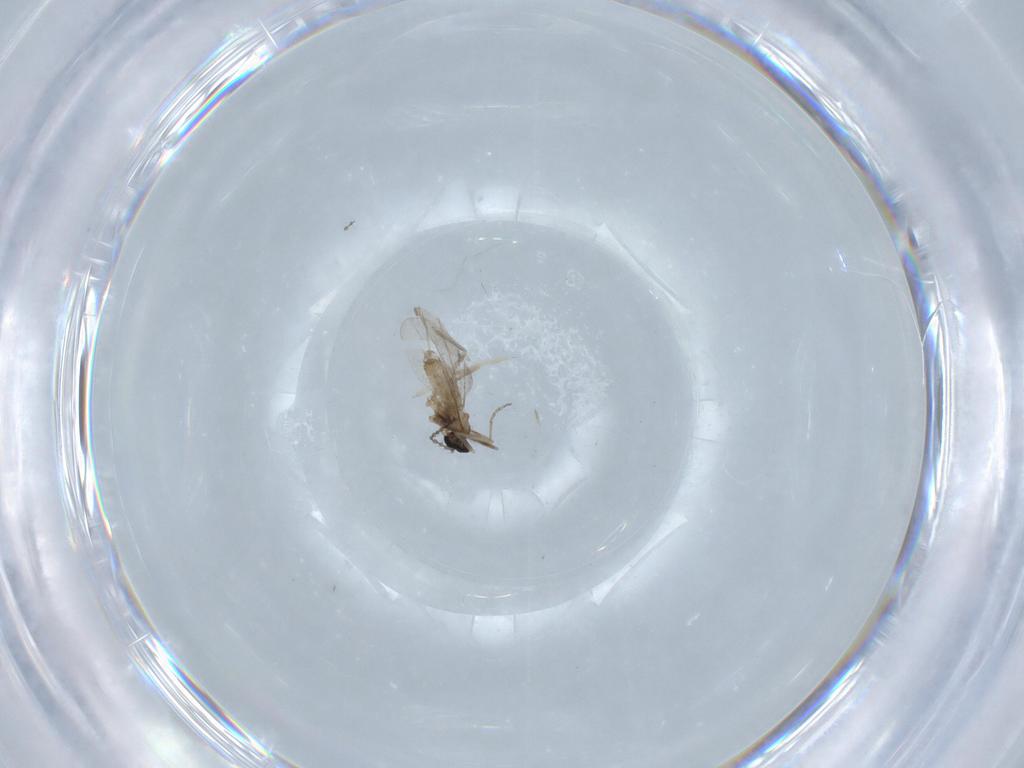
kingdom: Animalia
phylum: Arthropoda
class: Insecta
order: Diptera
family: Cecidomyiidae
